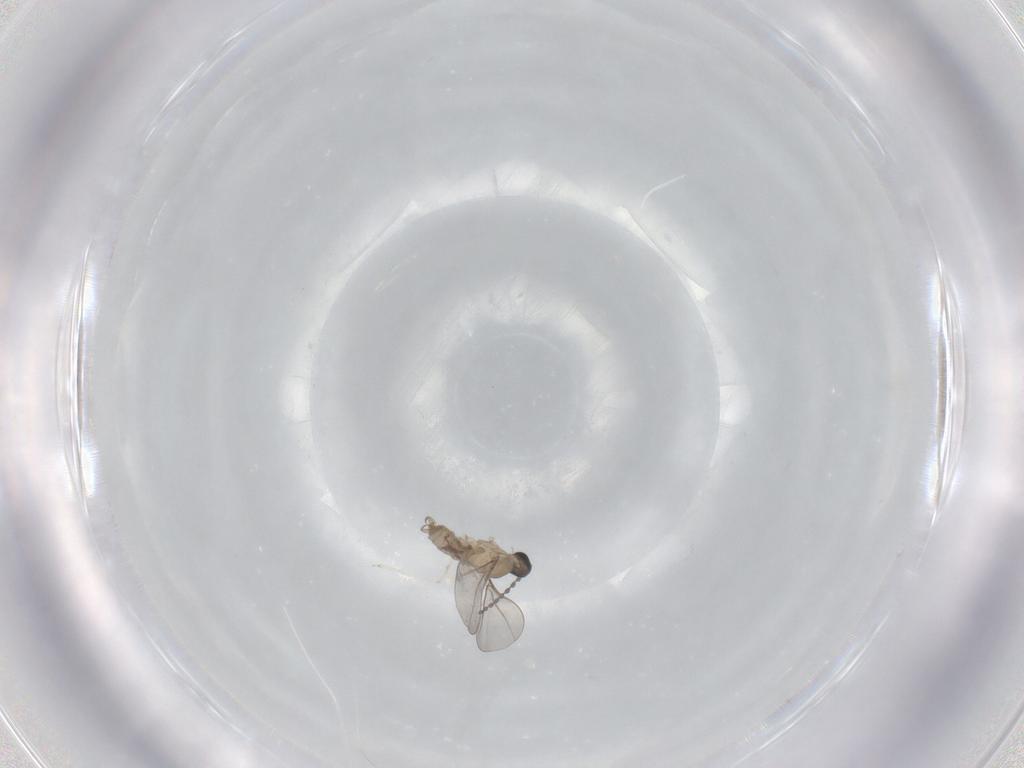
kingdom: Animalia
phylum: Arthropoda
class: Insecta
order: Diptera
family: Cecidomyiidae
